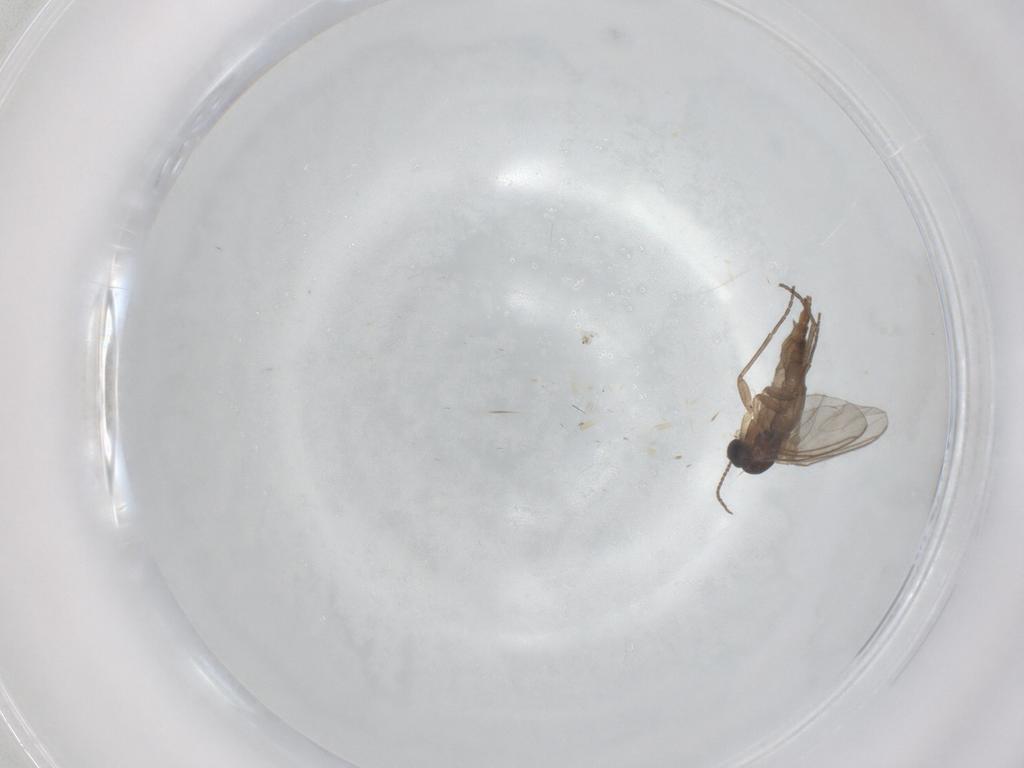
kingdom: Animalia
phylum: Arthropoda
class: Insecta
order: Diptera
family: Sciaridae
